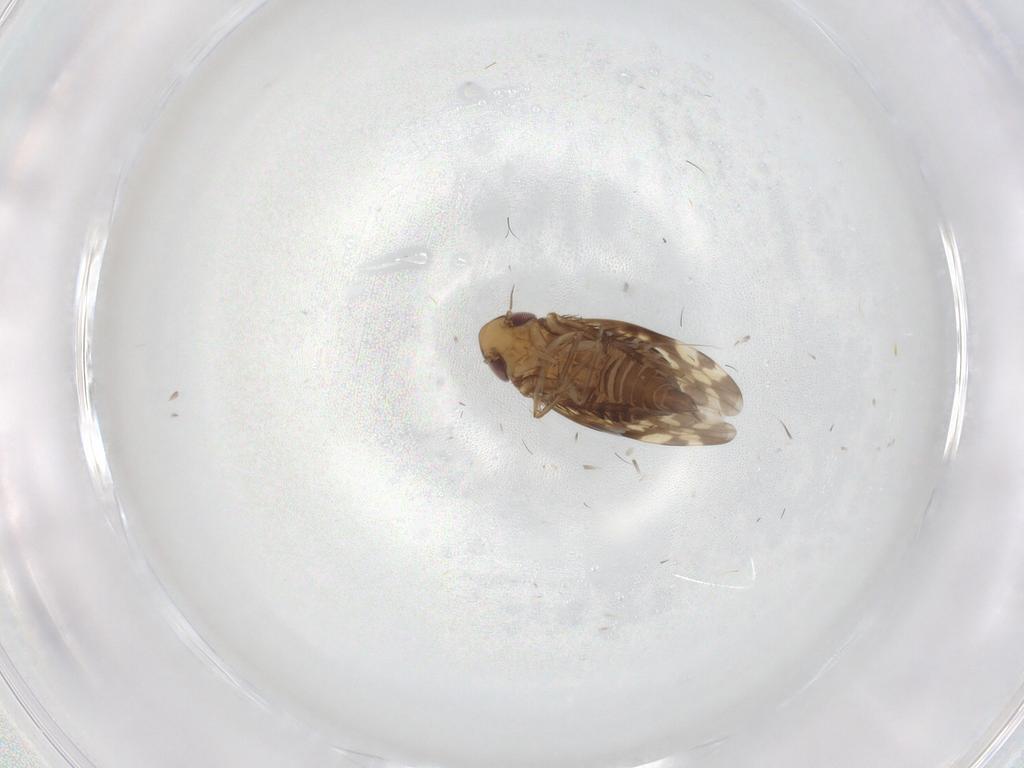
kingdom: Animalia
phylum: Arthropoda
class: Insecta
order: Hemiptera
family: Cicadellidae
